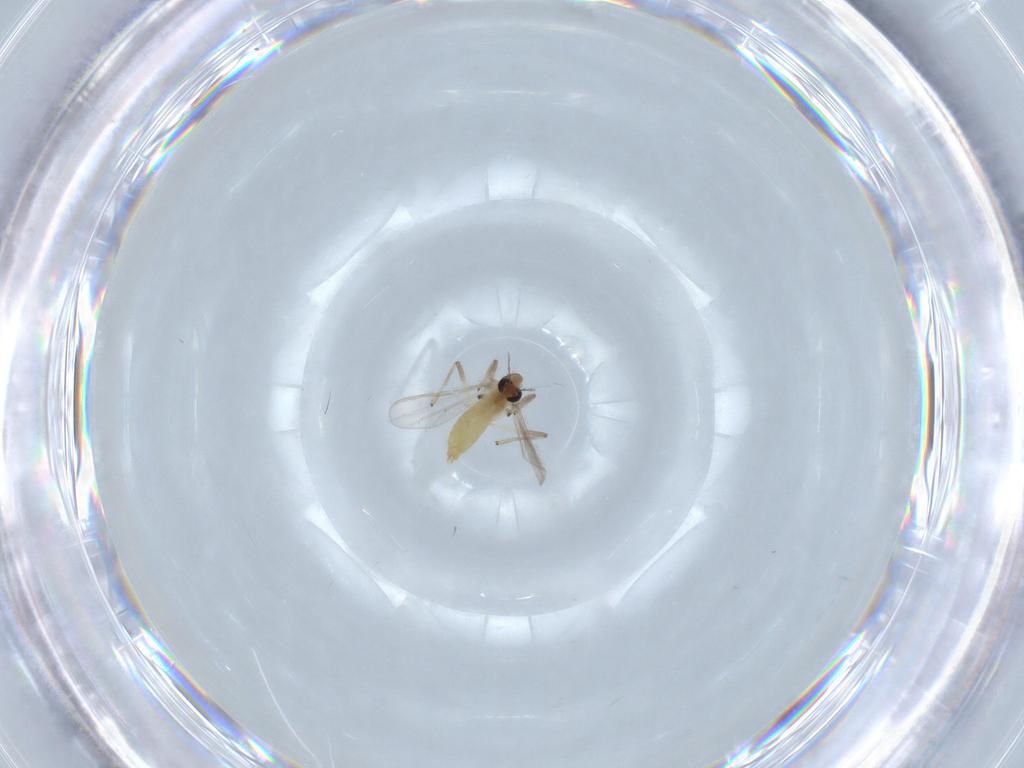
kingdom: Animalia
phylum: Arthropoda
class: Insecta
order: Diptera
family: Chironomidae
